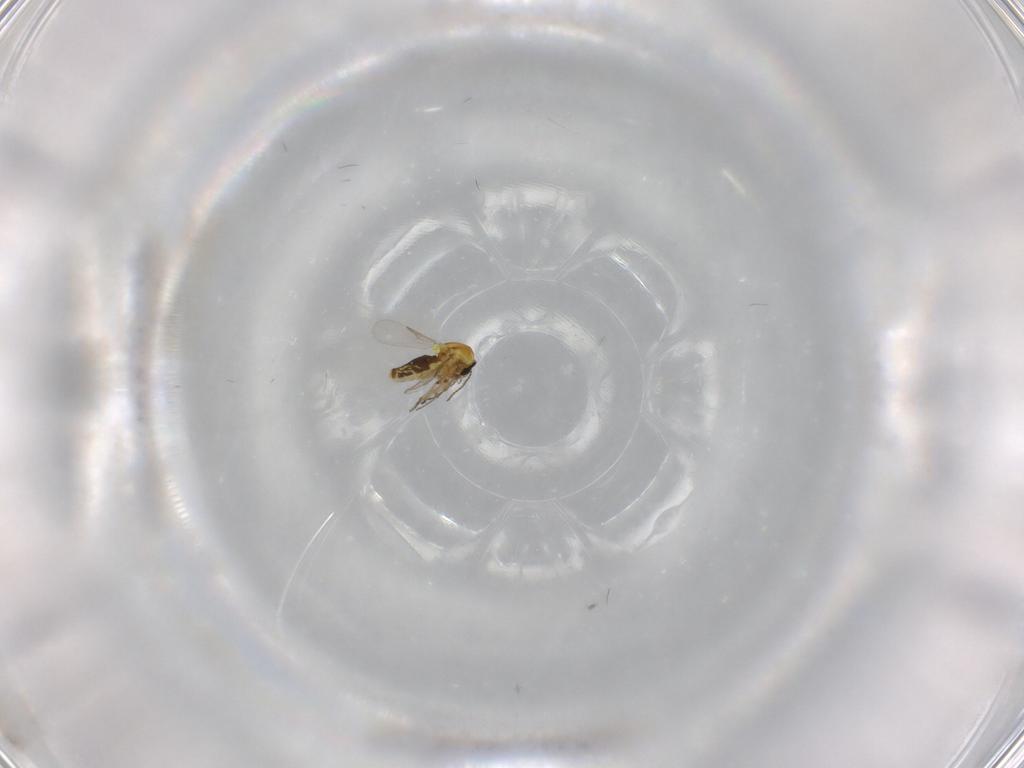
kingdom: Animalia
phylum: Arthropoda
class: Insecta
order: Diptera
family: Ceratopogonidae
